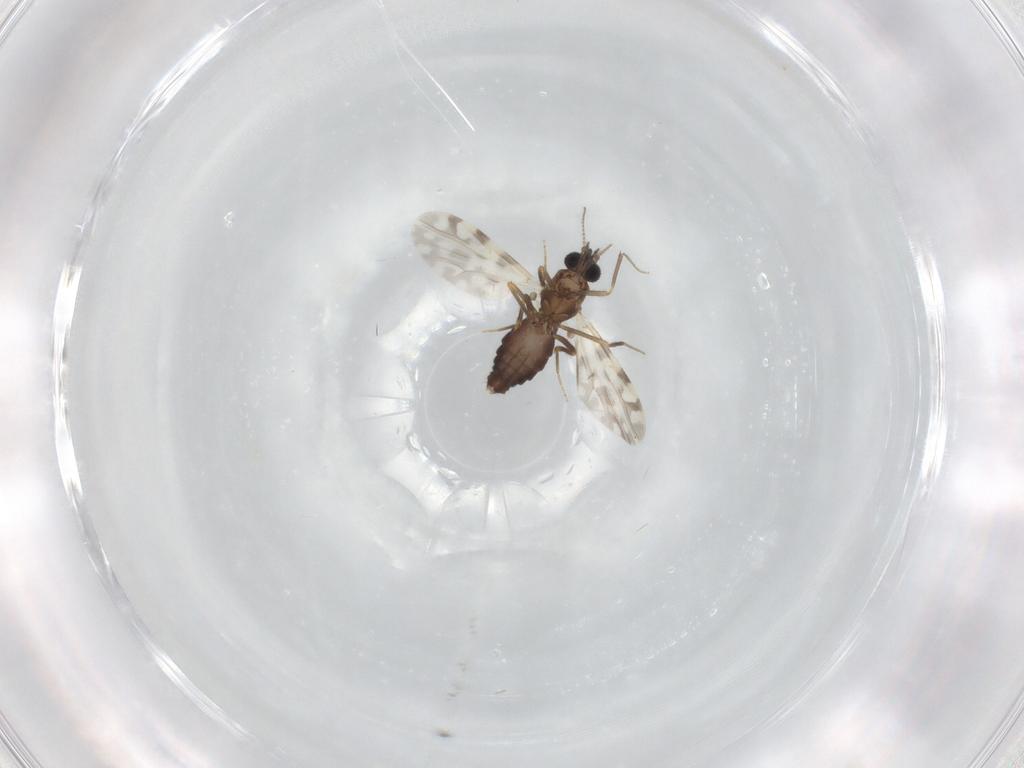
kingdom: Animalia
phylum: Arthropoda
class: Insecta
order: Diptera
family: Ceratopogonidae
